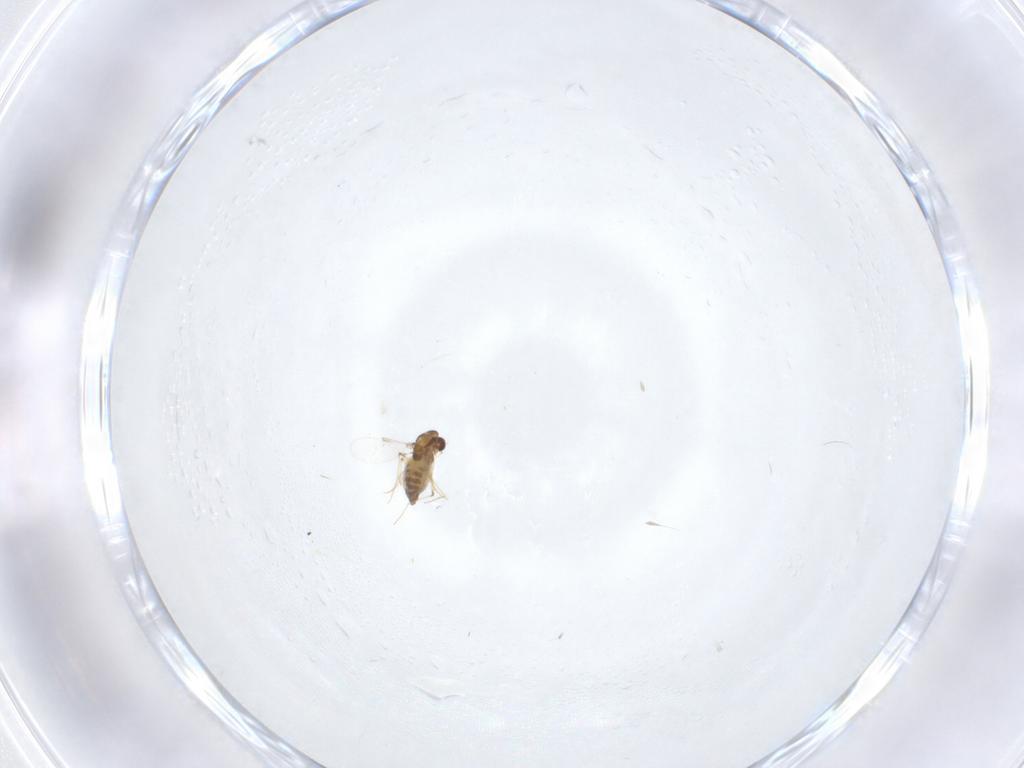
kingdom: Animalia
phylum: Arthropoda
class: Insecta
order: Diptera
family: Chironomidae
